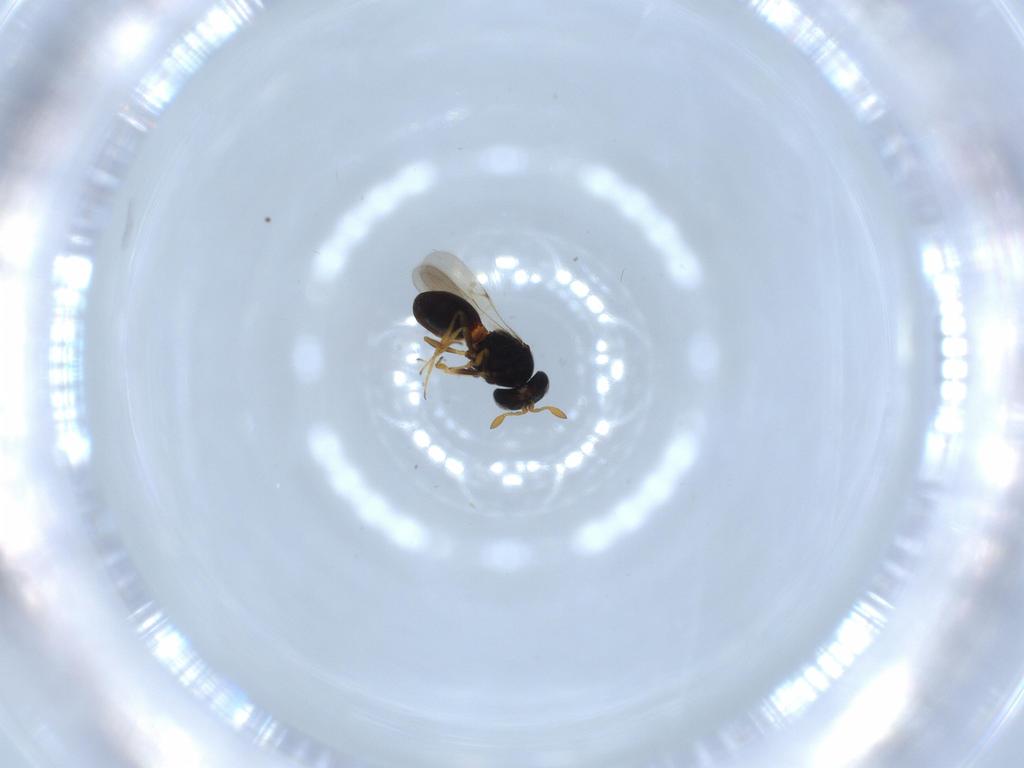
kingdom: Animalia
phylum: Arthropoda
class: Insecta
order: Hymenoptera
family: Scelionidae
